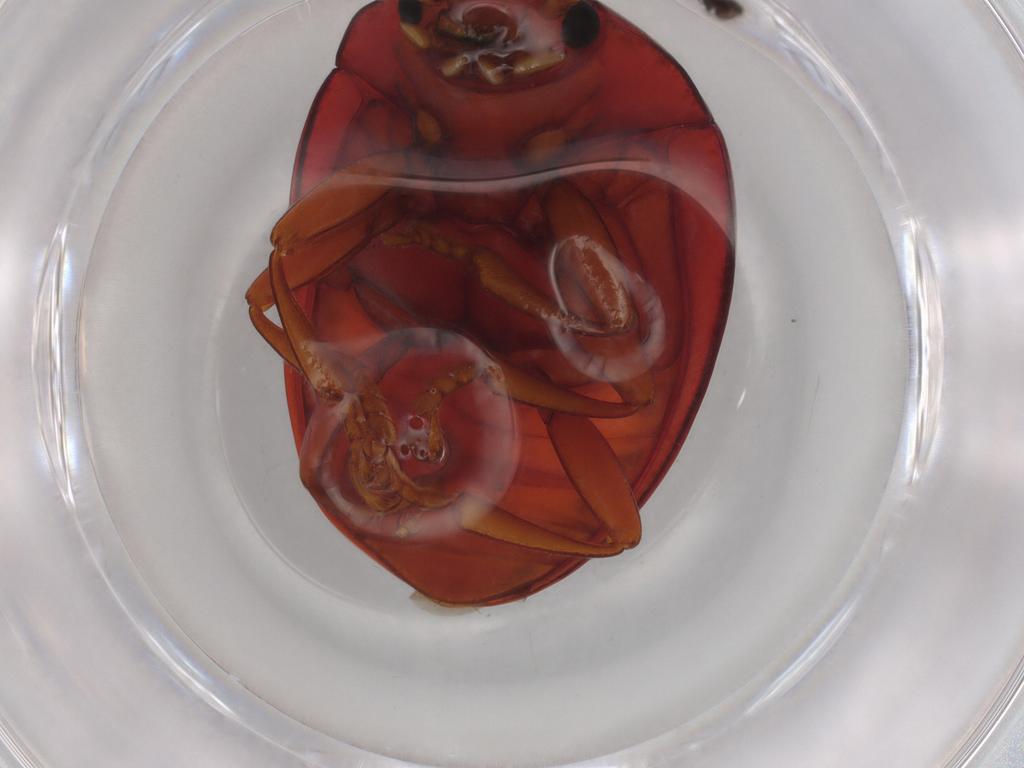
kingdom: Animalia
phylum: Arthropoda
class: Insecta
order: Coleoptera
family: Erotylidae
